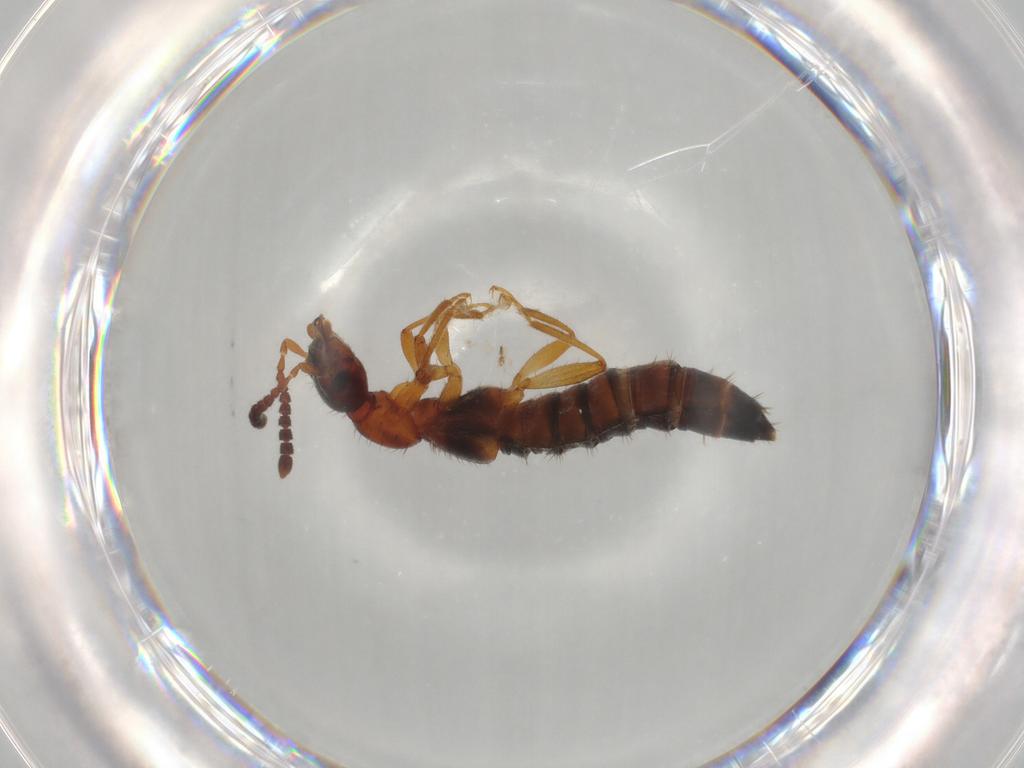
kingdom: Animalia
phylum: Arthropoda
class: Insecta
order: Coleoptera
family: Staphylinidae
